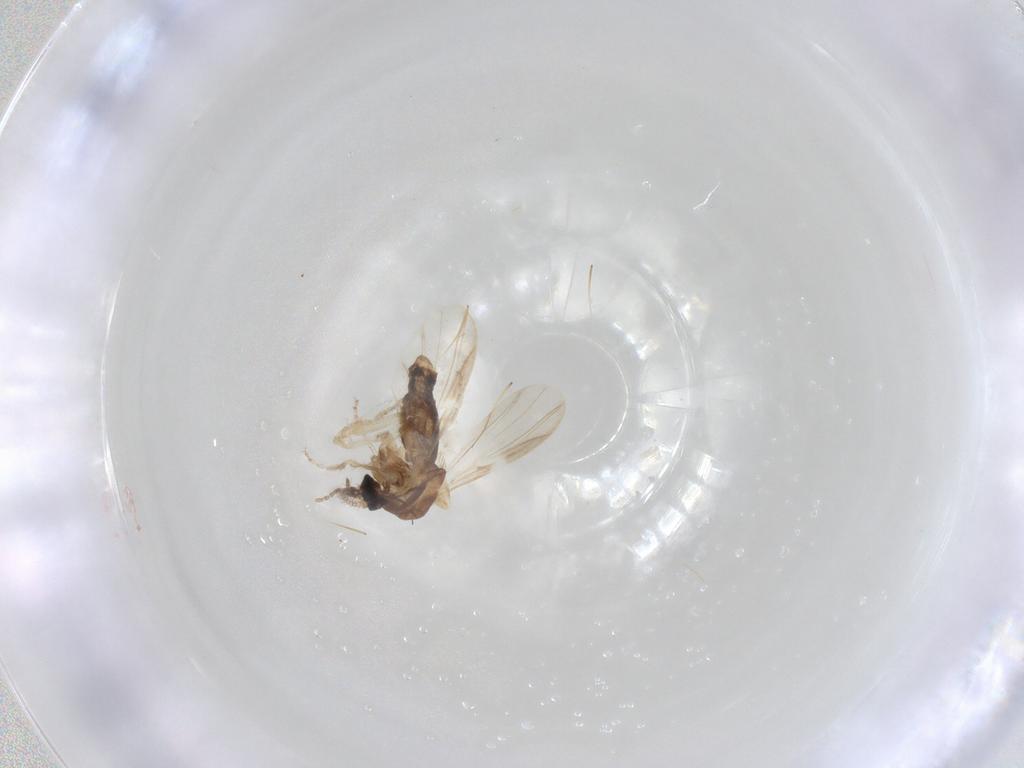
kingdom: Animalia
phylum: Arthropoda
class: Insecta
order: Diptera
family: Ceratopogonidae
